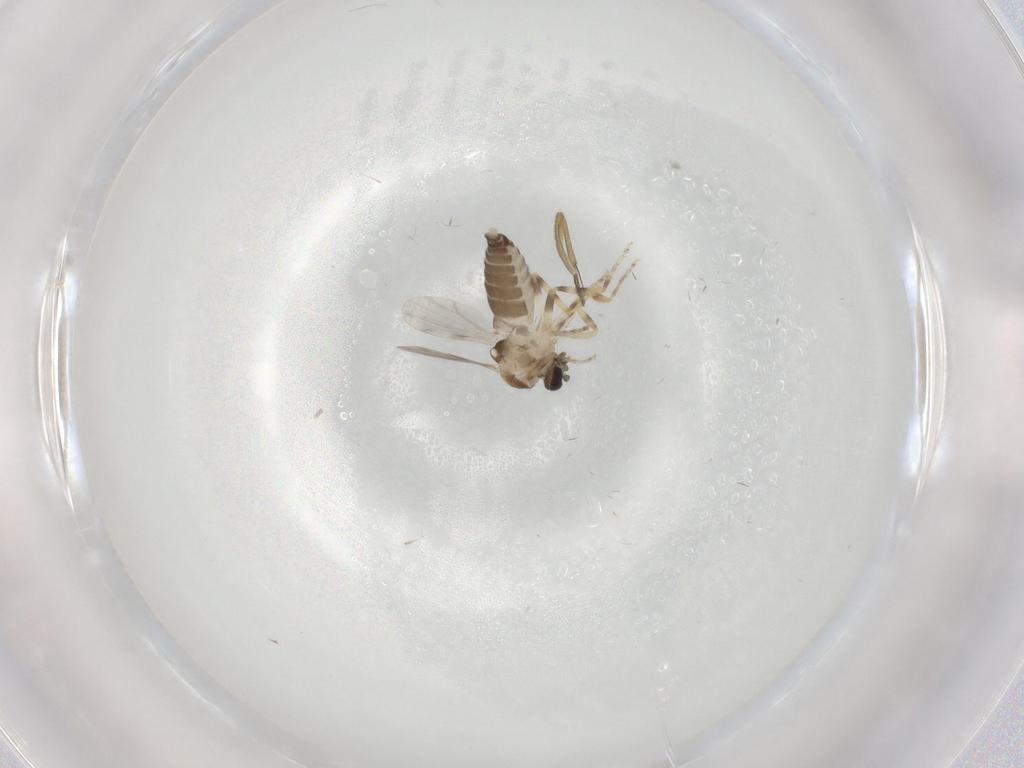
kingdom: Animalia
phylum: Arthropoda
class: Insecta
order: Diptera
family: Ceratopogonidae
